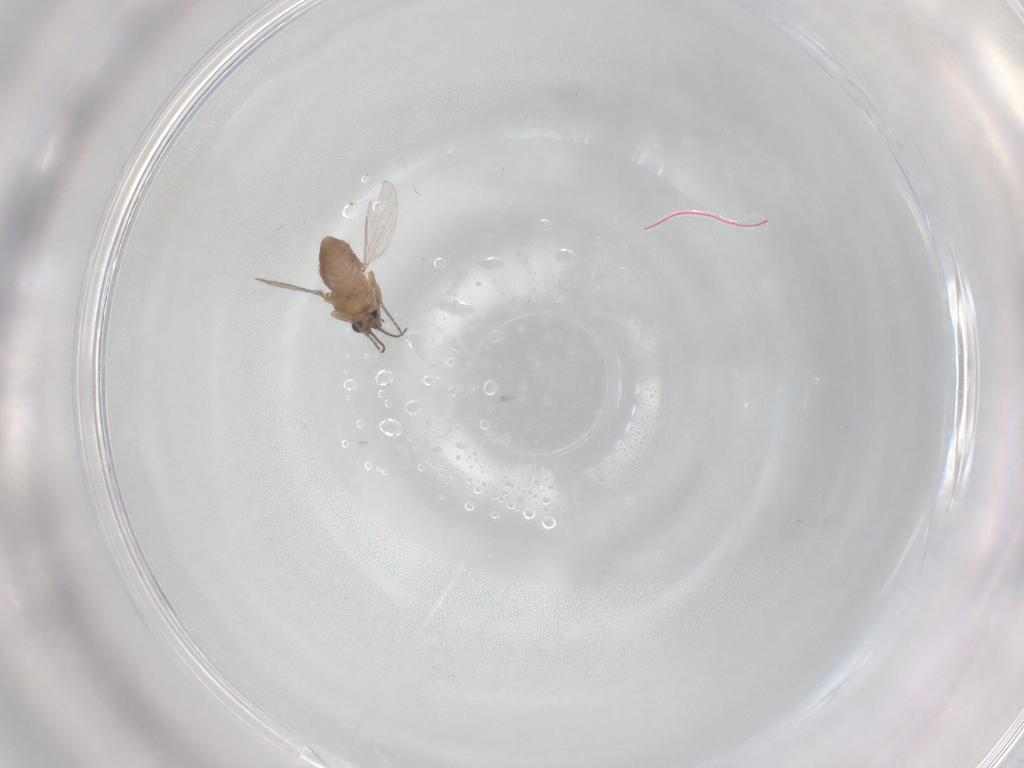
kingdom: Animalia
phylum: Arthropoda
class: Insecta
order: Diptera
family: Ceratopogonidae
